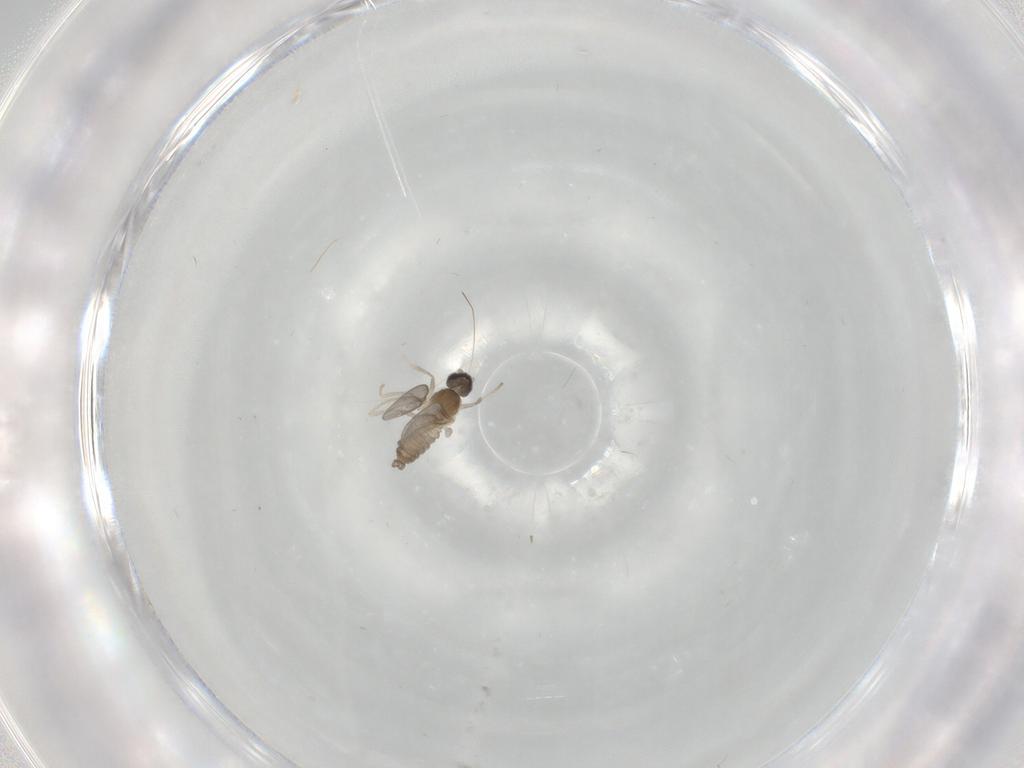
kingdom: Animalia
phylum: Arthropoda
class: Insecta
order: Diptera
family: Cecidomyiidae
